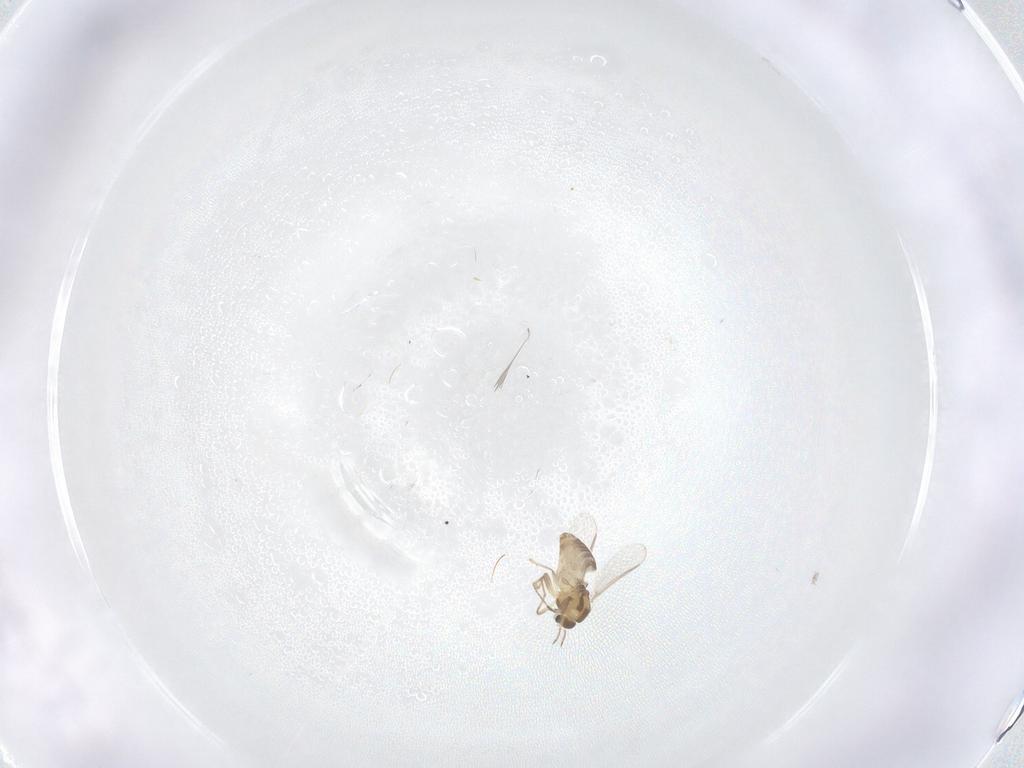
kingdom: Animalia
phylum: Arthropoda
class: Insecta
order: Diptera
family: Chironomidae
